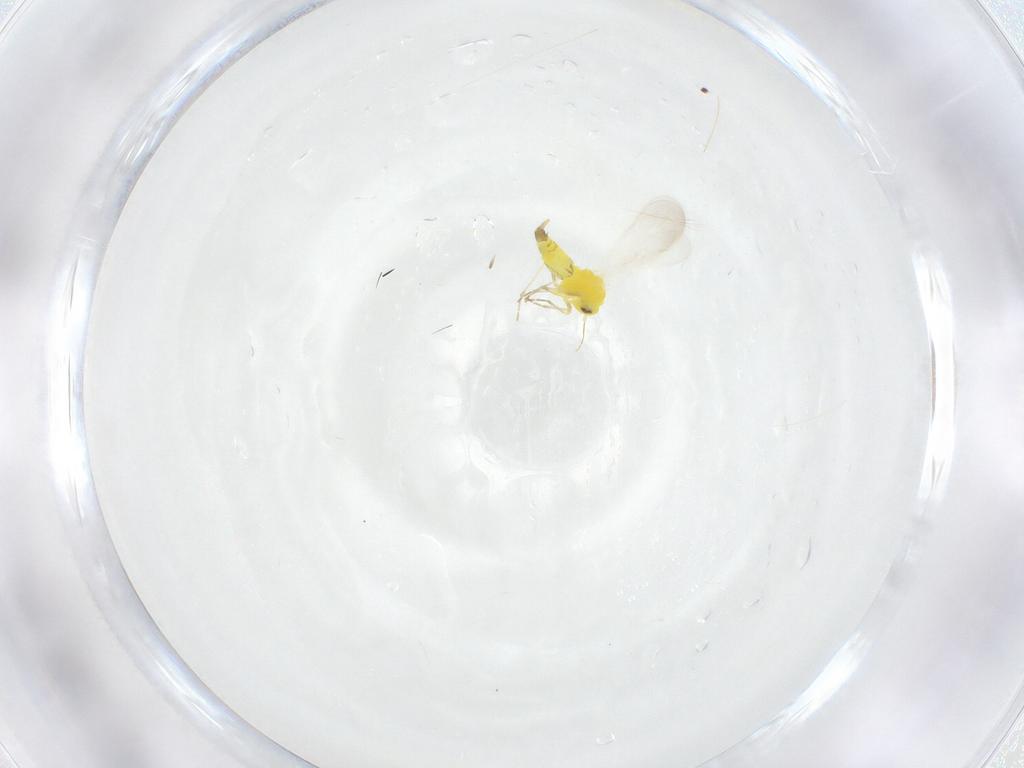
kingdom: Animalia
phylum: Arthropoda
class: Insecta
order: Hemiptera
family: Aleyrodidae
